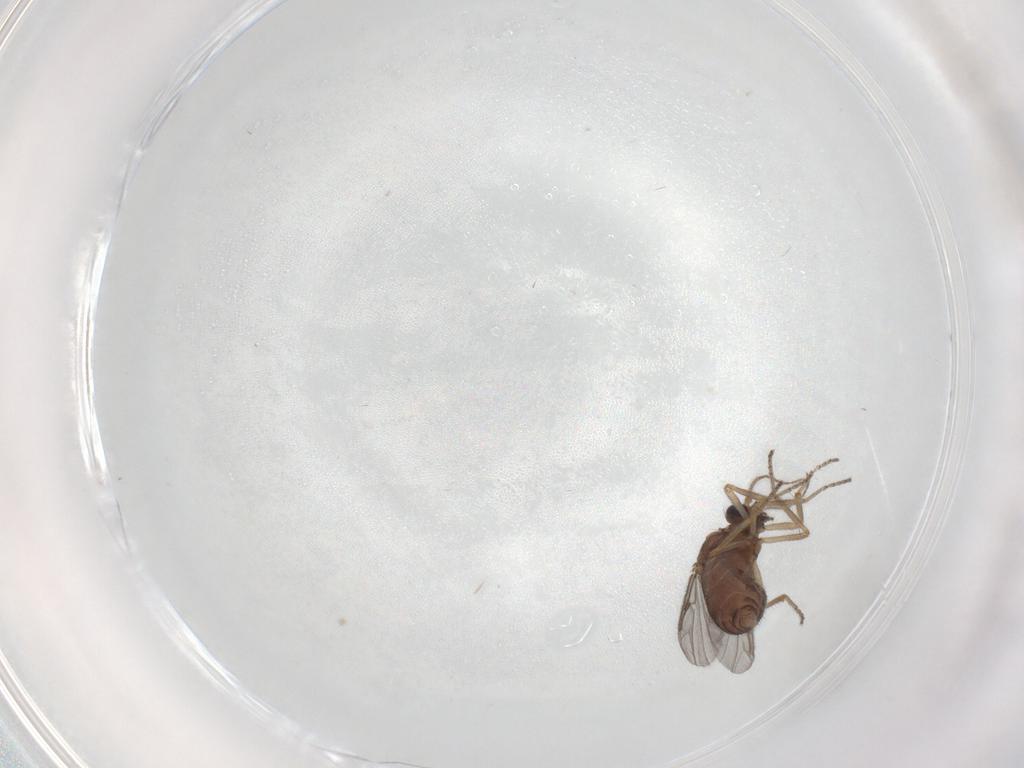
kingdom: Animalia
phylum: Arthropoda
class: Insecta
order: Diptera
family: Ceratopogonidae
